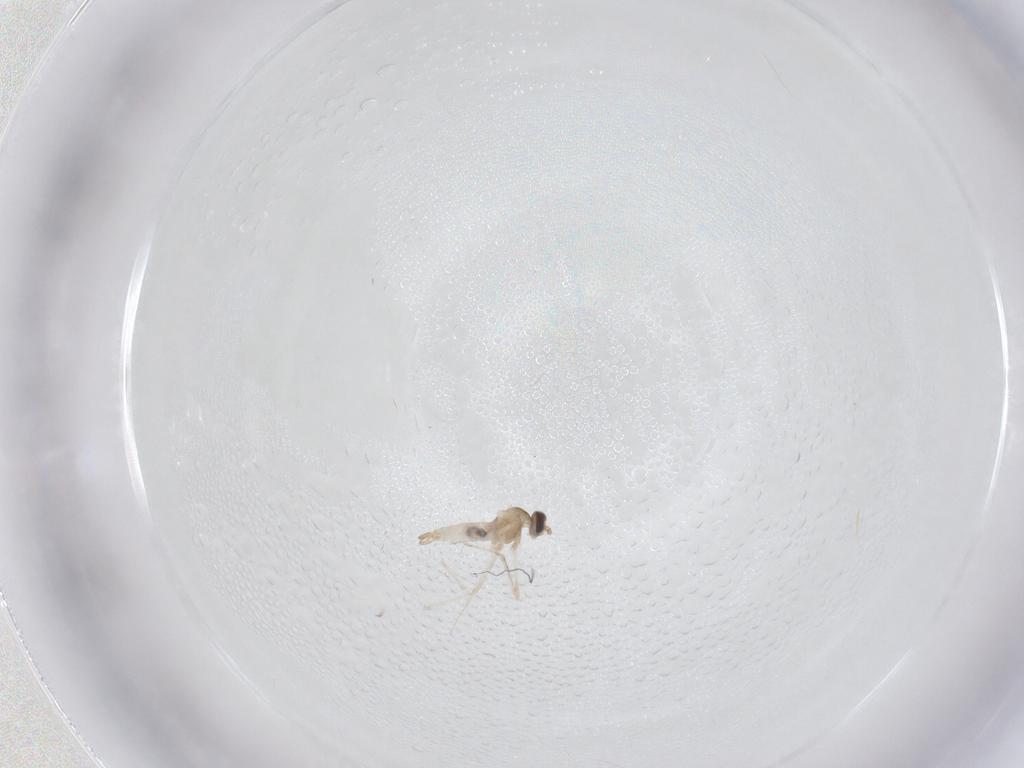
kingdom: Animalia
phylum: Arthropoda
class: Insecta
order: Diptera
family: Cecidomyiidae
